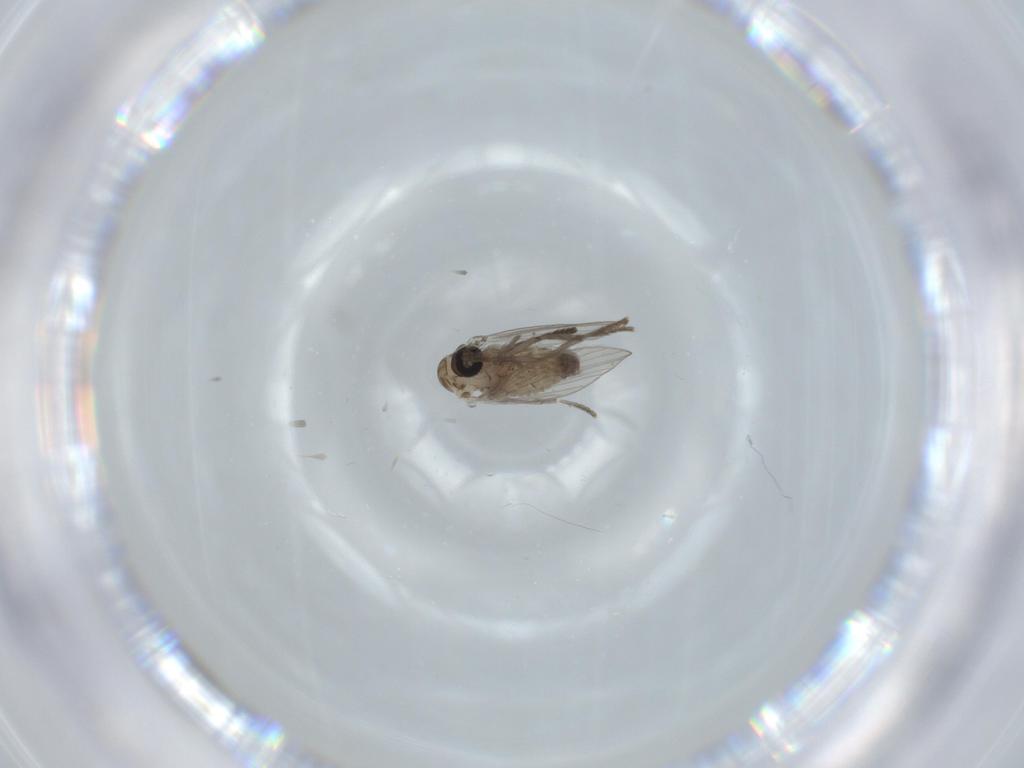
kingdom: Animalia
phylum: Arthropoda
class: Insecta
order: Diptera
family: Psychodidae
